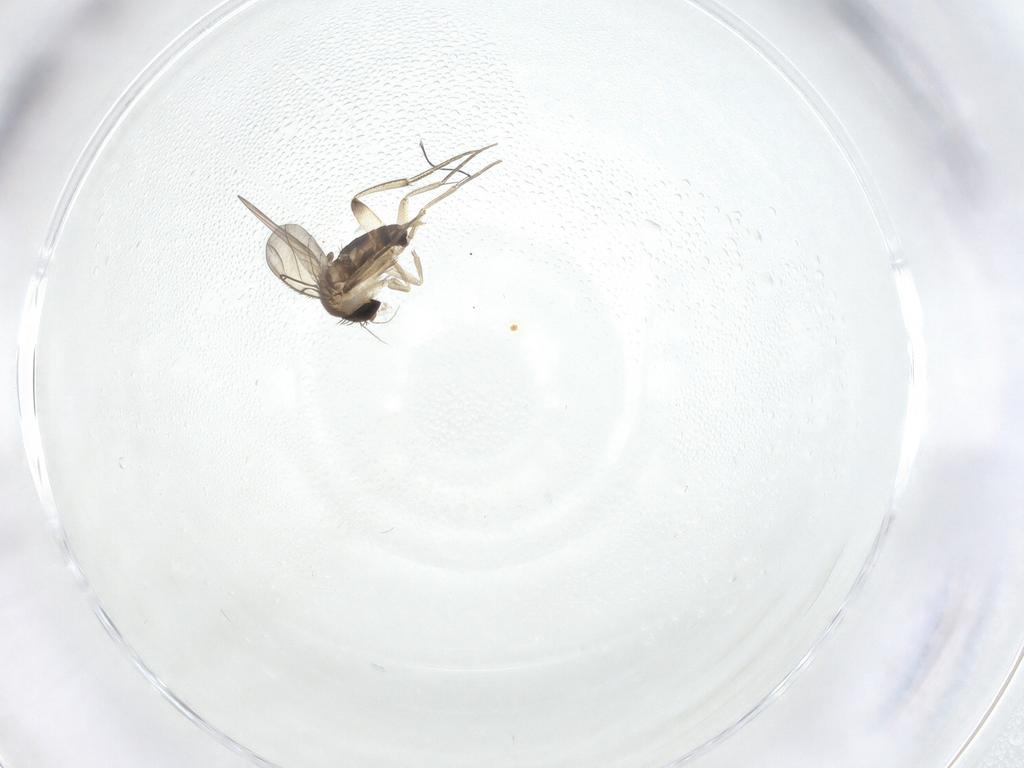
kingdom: Animalia
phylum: Arthropoda
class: Insecta
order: Diptera
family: Phoridae
